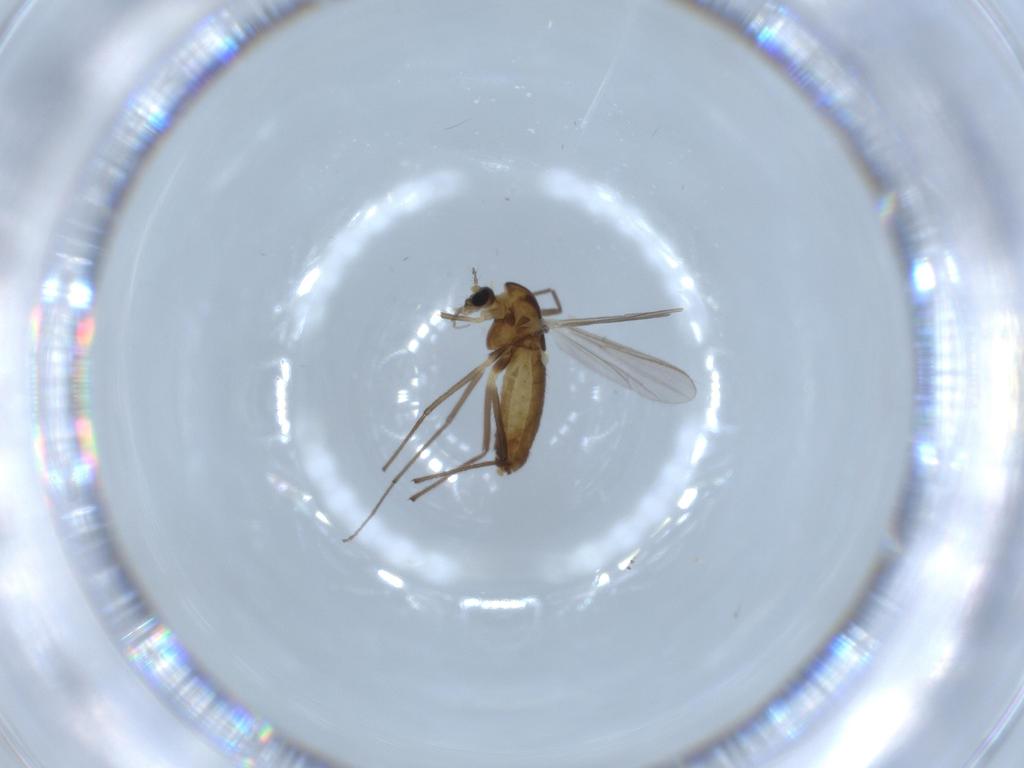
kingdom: Animalia
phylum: Arthropoda
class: Insecta
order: Diptera
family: Chironomidae
